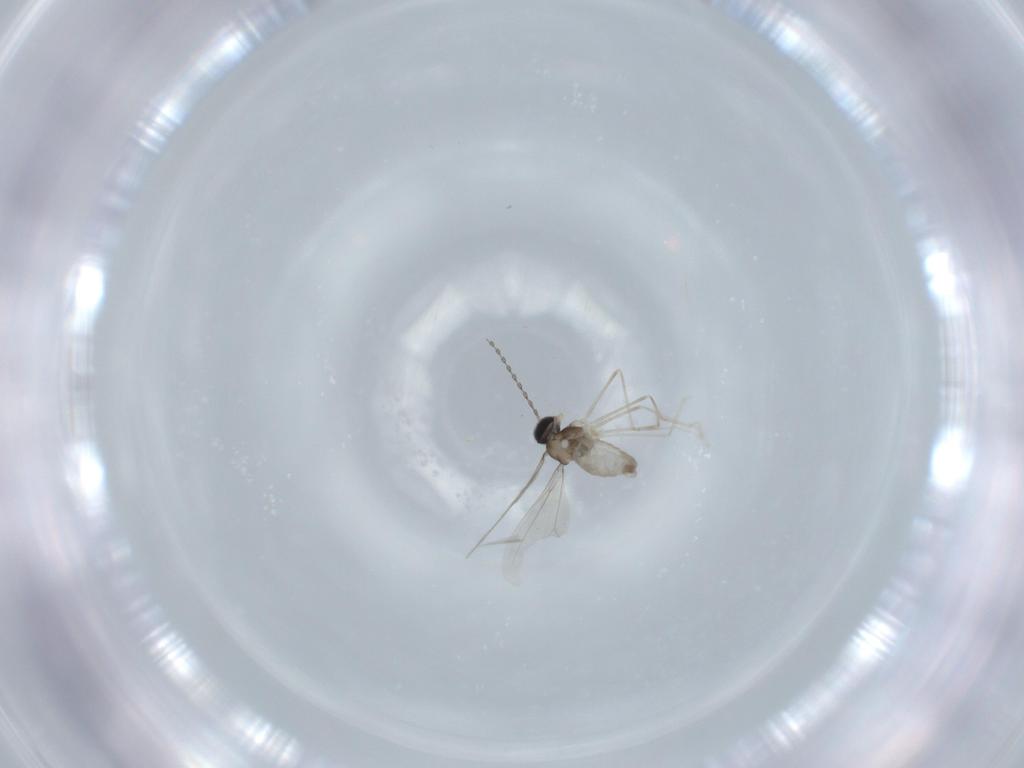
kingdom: Animalia
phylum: Arthropoda
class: Insecta
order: Diptera
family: Cecidomyiidae
